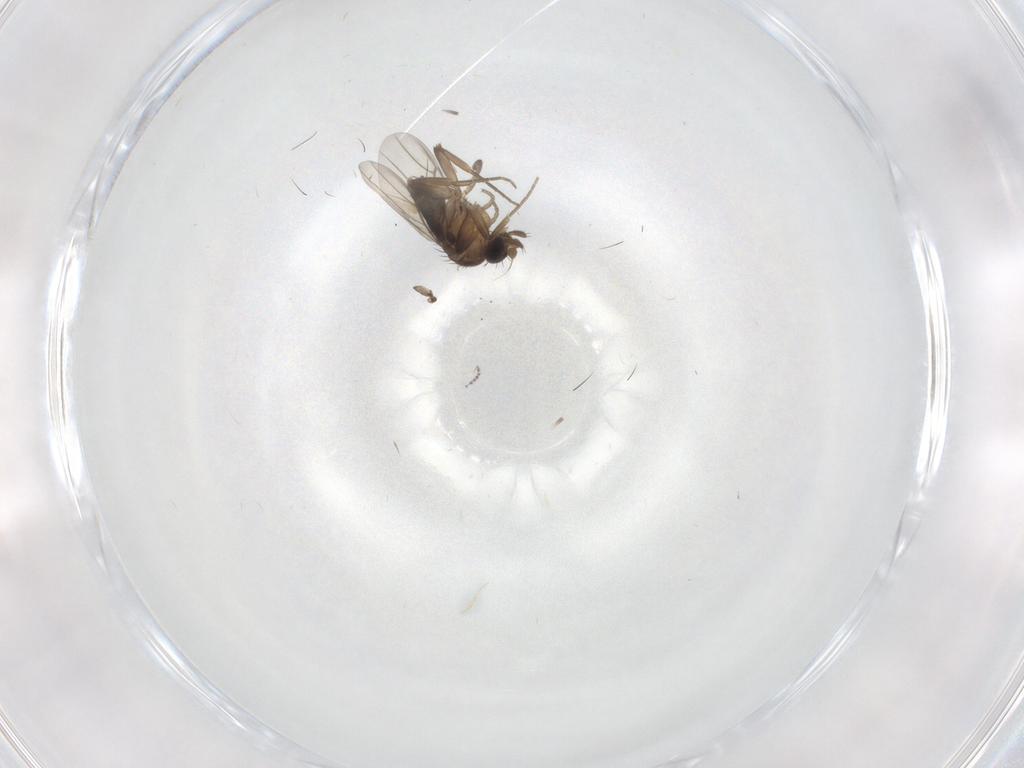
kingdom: Animalia
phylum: Arthropoda
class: Insecta
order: Diptera
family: Phoridae
